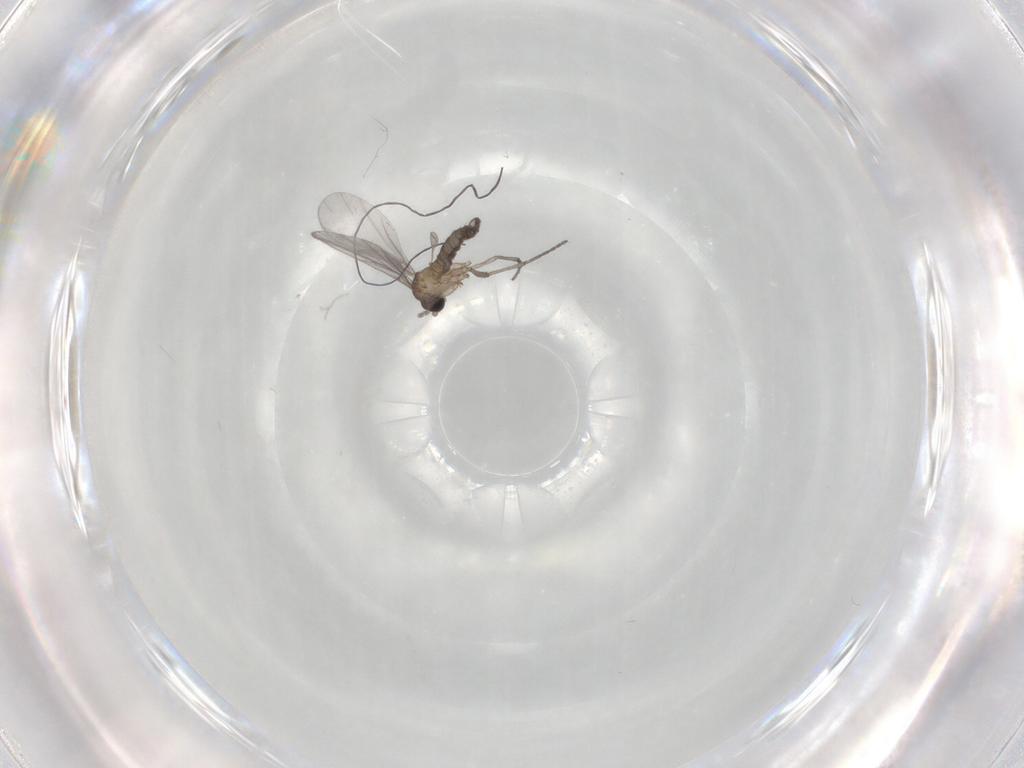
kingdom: Animalia
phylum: Arthropoda
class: Insecta
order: Diptera
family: Sciaridae
